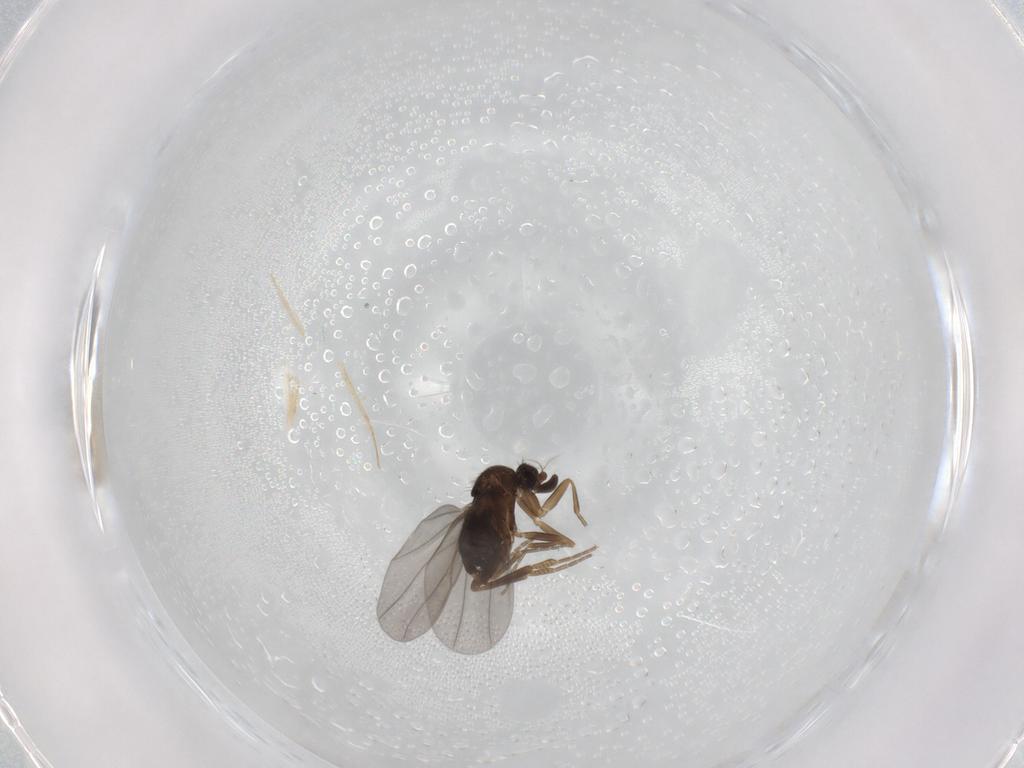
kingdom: Animalia
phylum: Arthropoda
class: Insecta
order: Diptera
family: Phoridae
